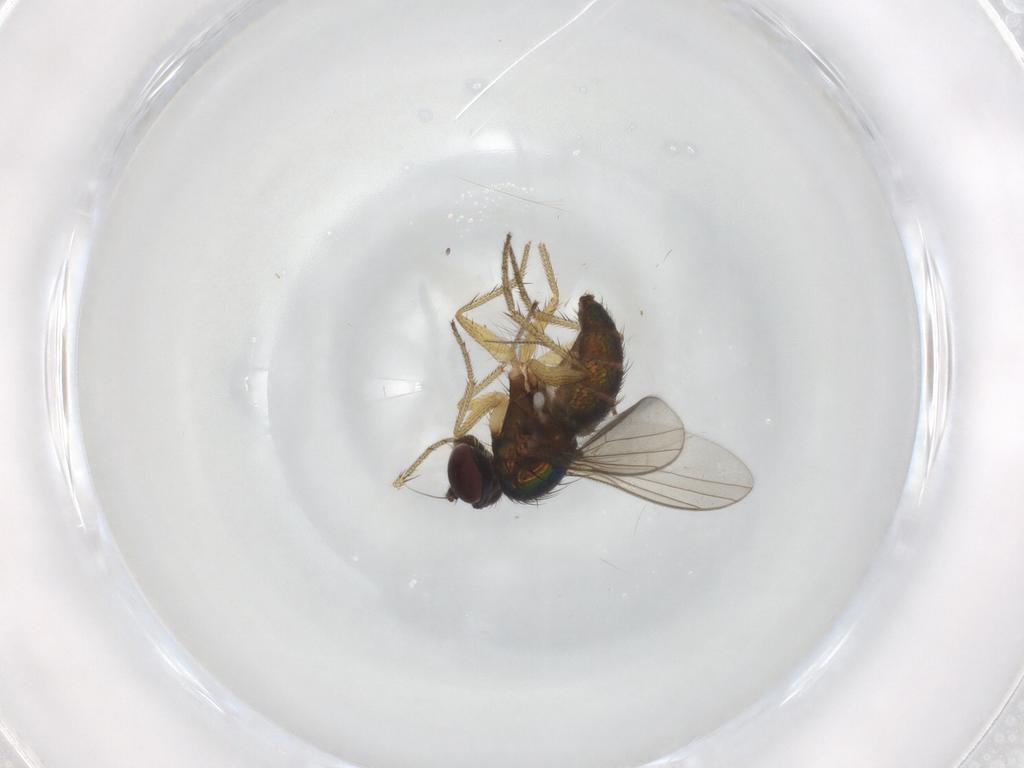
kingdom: Animalia
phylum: Arthropoda
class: Insecta
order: Diptera
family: Dolichopodidae
